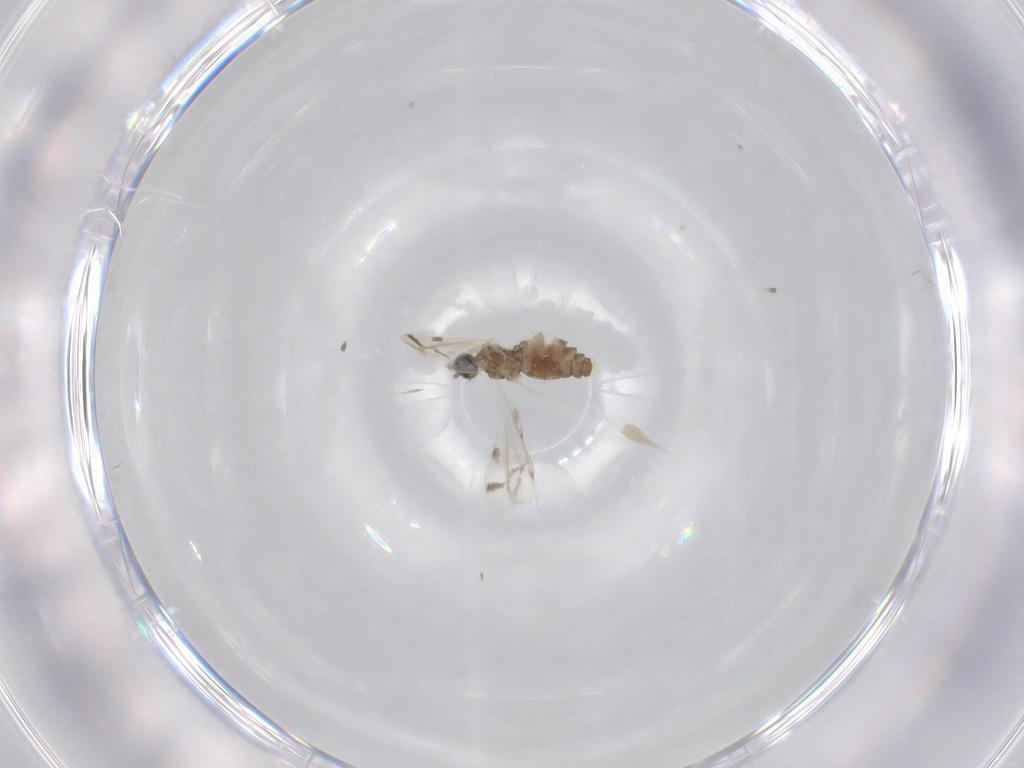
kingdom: Animalia
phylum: Arthropoda
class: Insecta
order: Diptera
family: Cecidomyiidae
